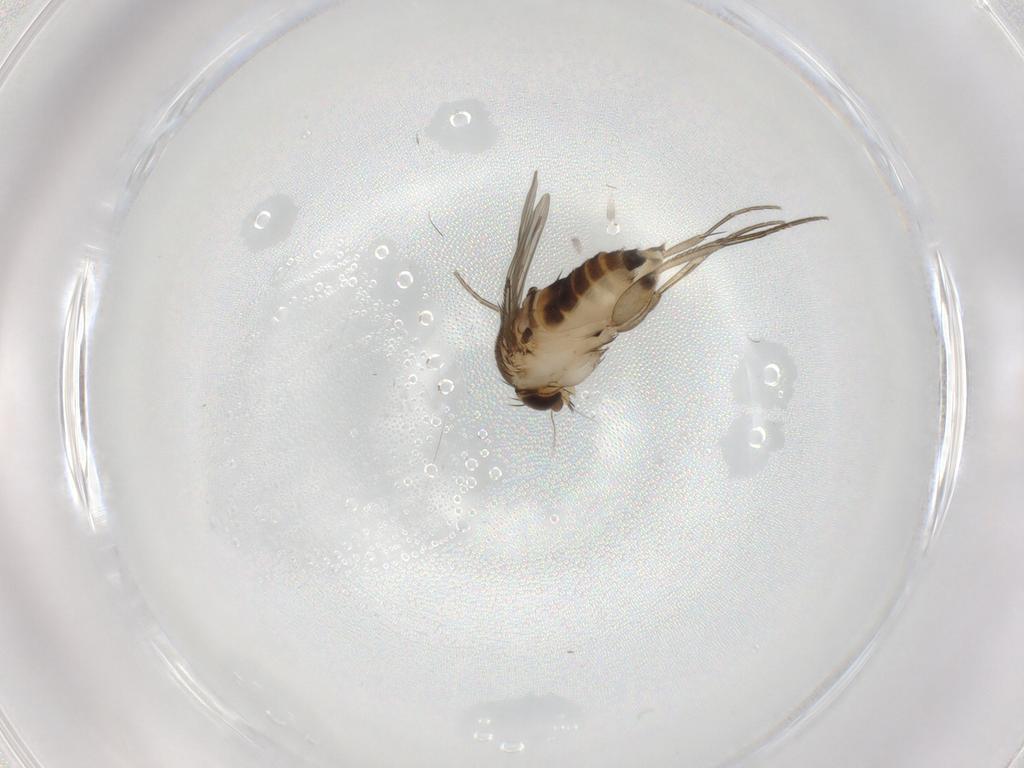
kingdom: Animalia
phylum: Arthropoda
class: Insecta
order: Diptera
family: Phoridae
